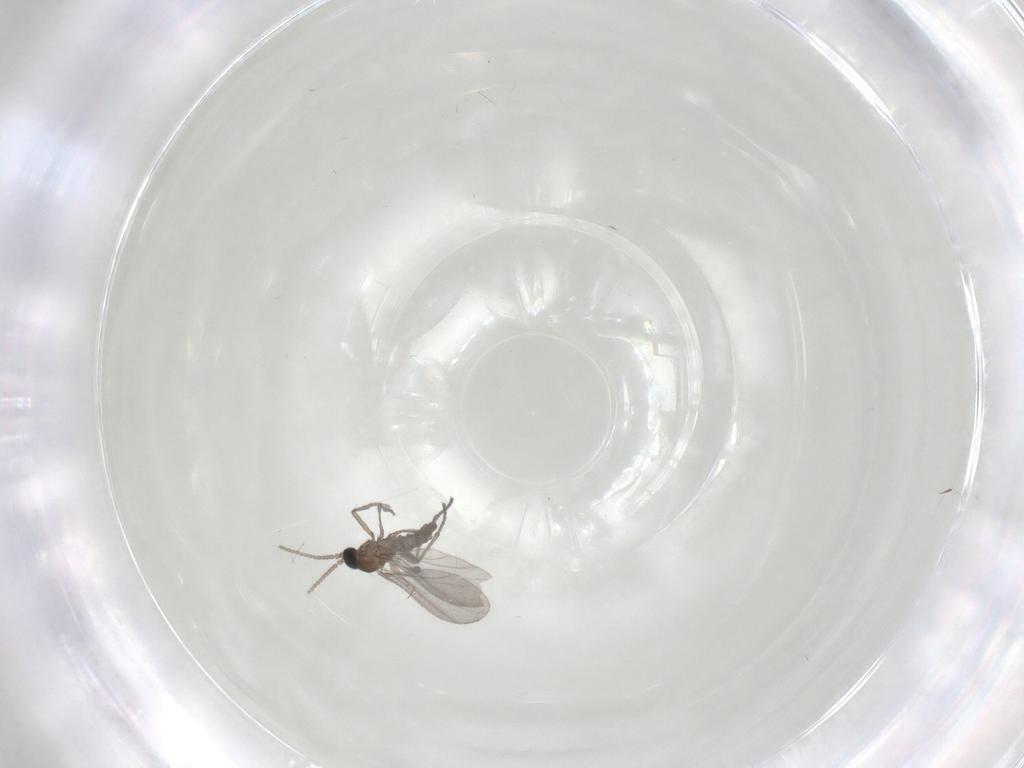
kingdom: Animalia
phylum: Arthropoda
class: Insecta
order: Diptera
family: Sciaridae
